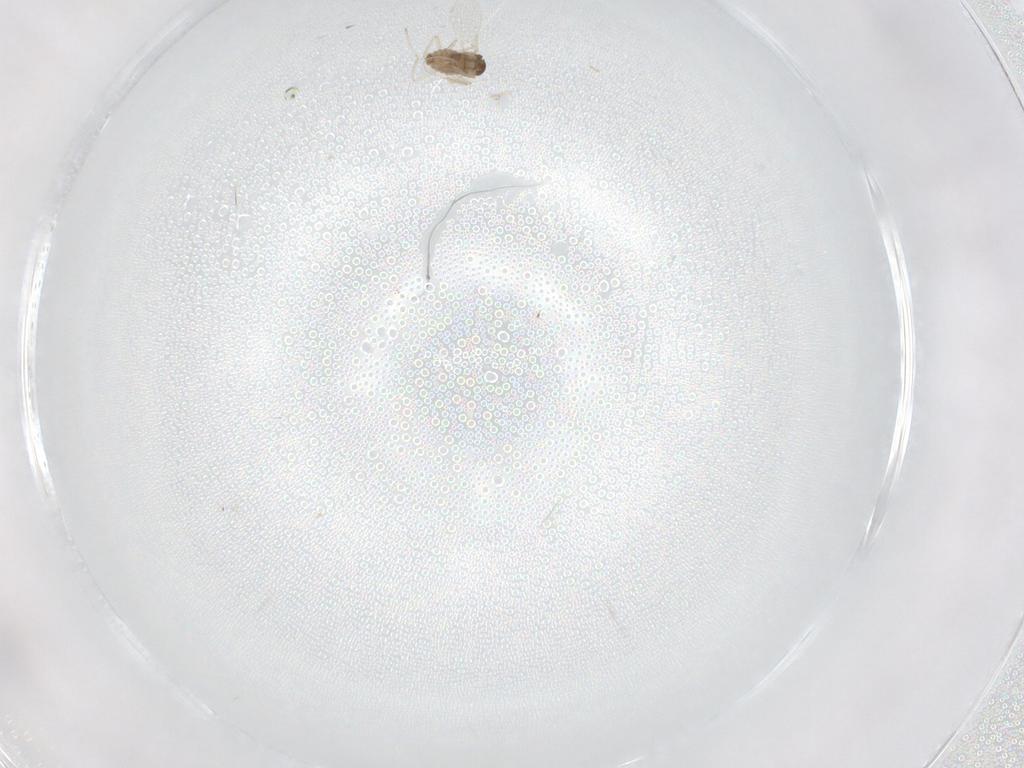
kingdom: Animalia
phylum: Arthropoda
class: Insecta
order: Diptera
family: Cecidomyiidae
